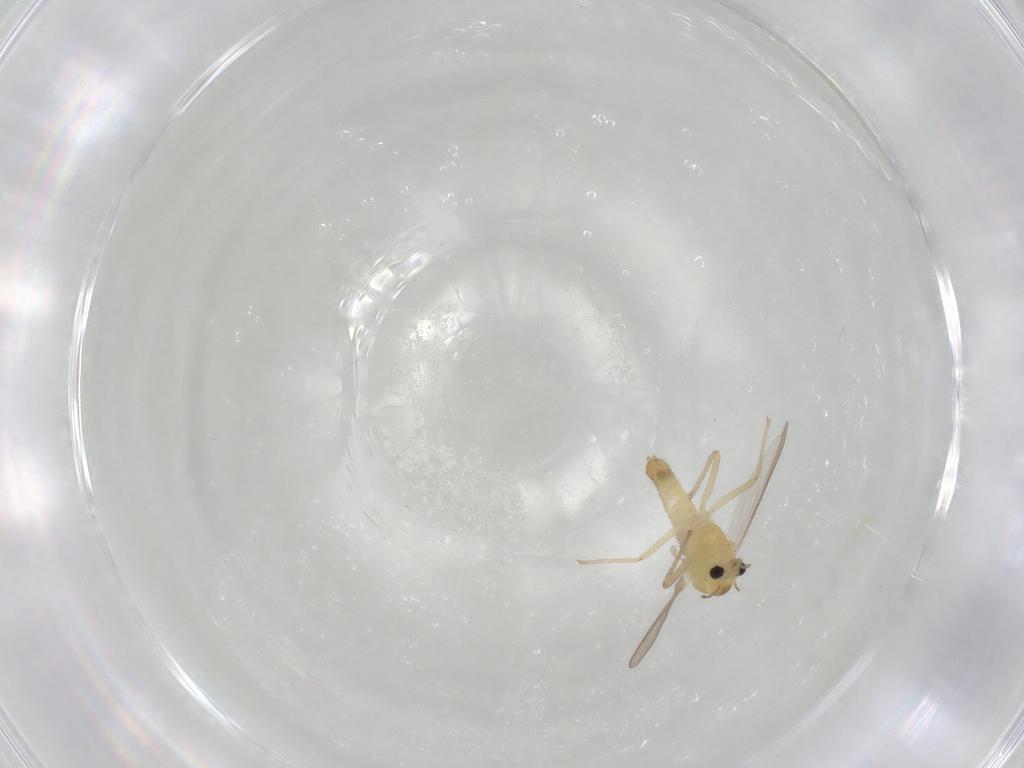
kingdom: Animalia
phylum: Arthropoda
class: Insecta
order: Diptera
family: Chironomidae
